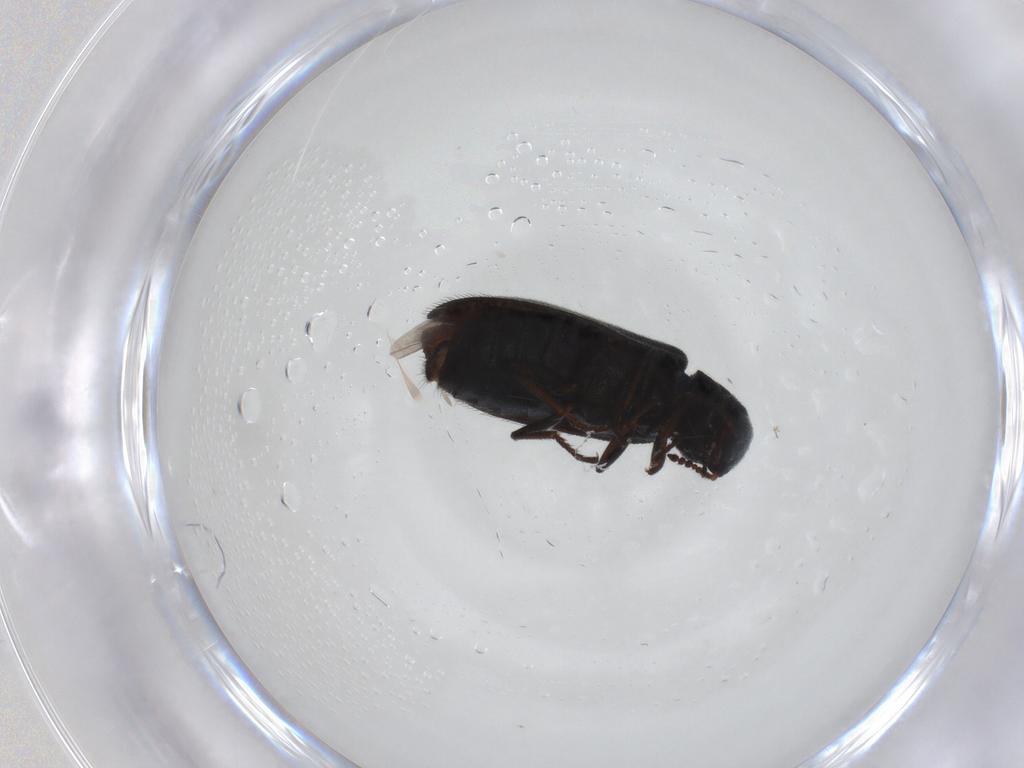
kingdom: Animalia
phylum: Arthropoda
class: Insecta
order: Coleoptera
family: Melyridae
